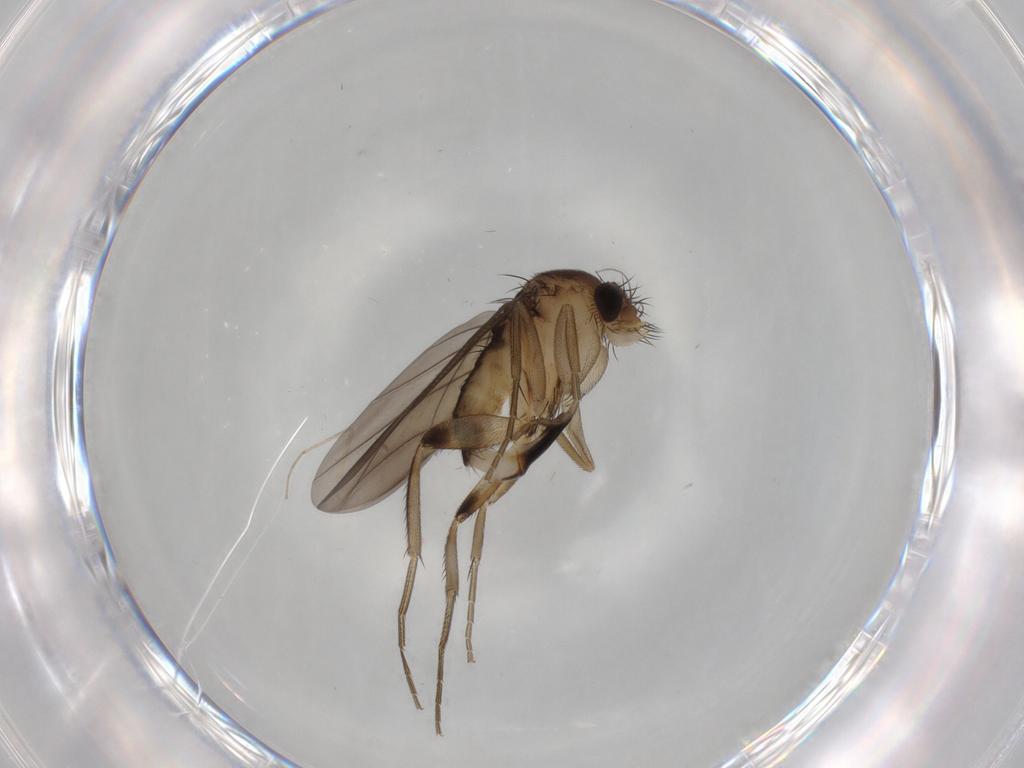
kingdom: Animalia
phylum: Arthropoda
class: Insecta
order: Diptera
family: Phoridae
